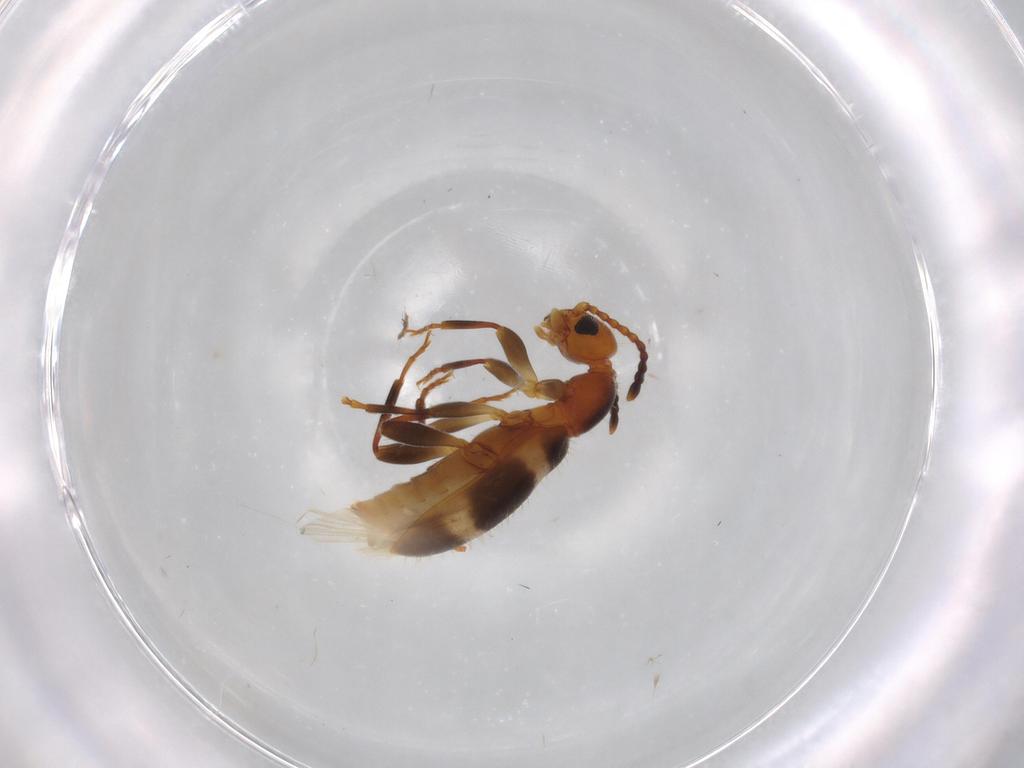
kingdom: Animalia
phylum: Arthropoda
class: Insecta
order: Coleoptera
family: Anthicidae
